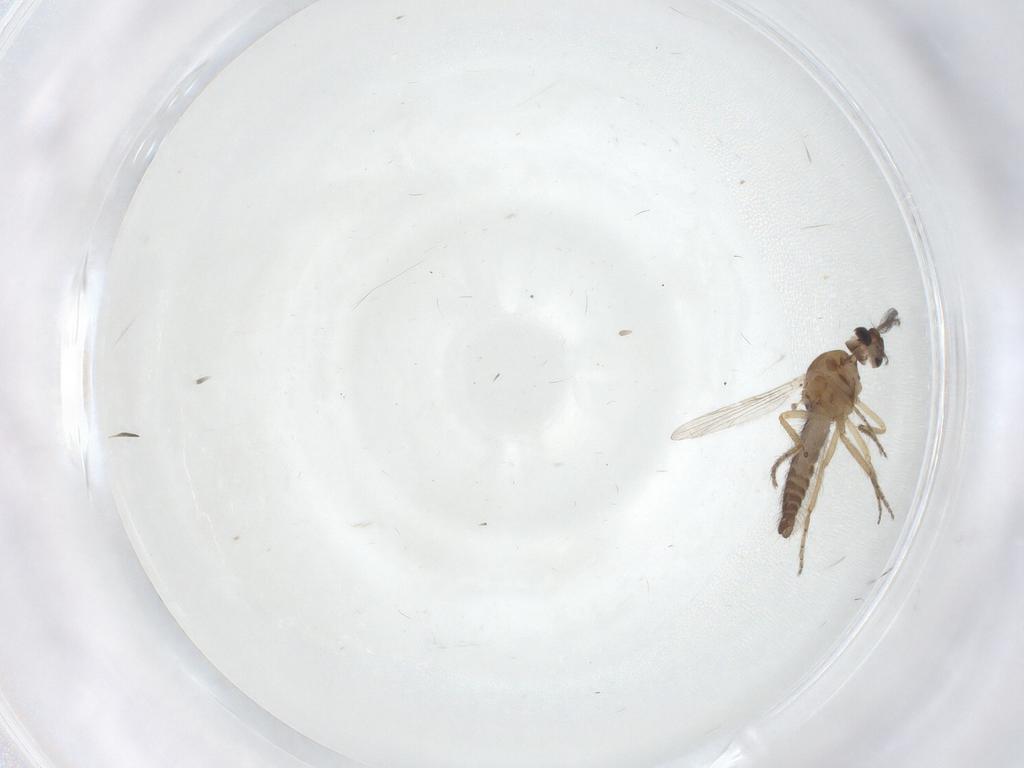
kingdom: Animalia
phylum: Arthropoda
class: Insecta
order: Diptera
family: Ceratopogonidae
